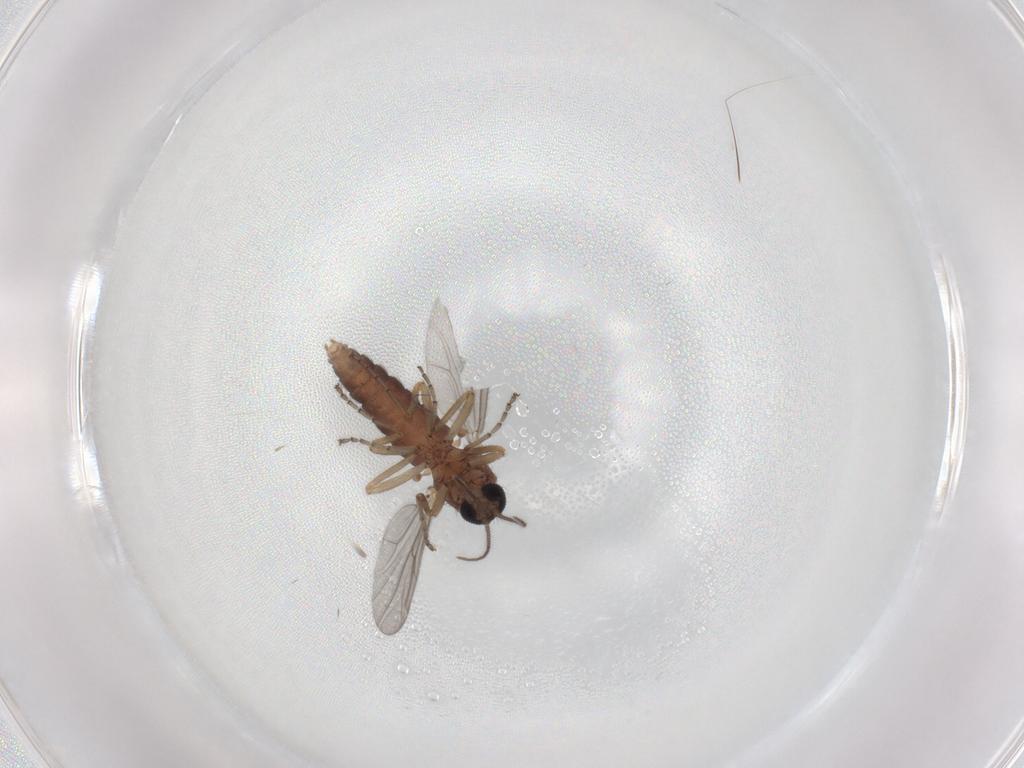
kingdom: Animalia
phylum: Arthropoda
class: Insecta
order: Diptera
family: Ceratopogonidae
